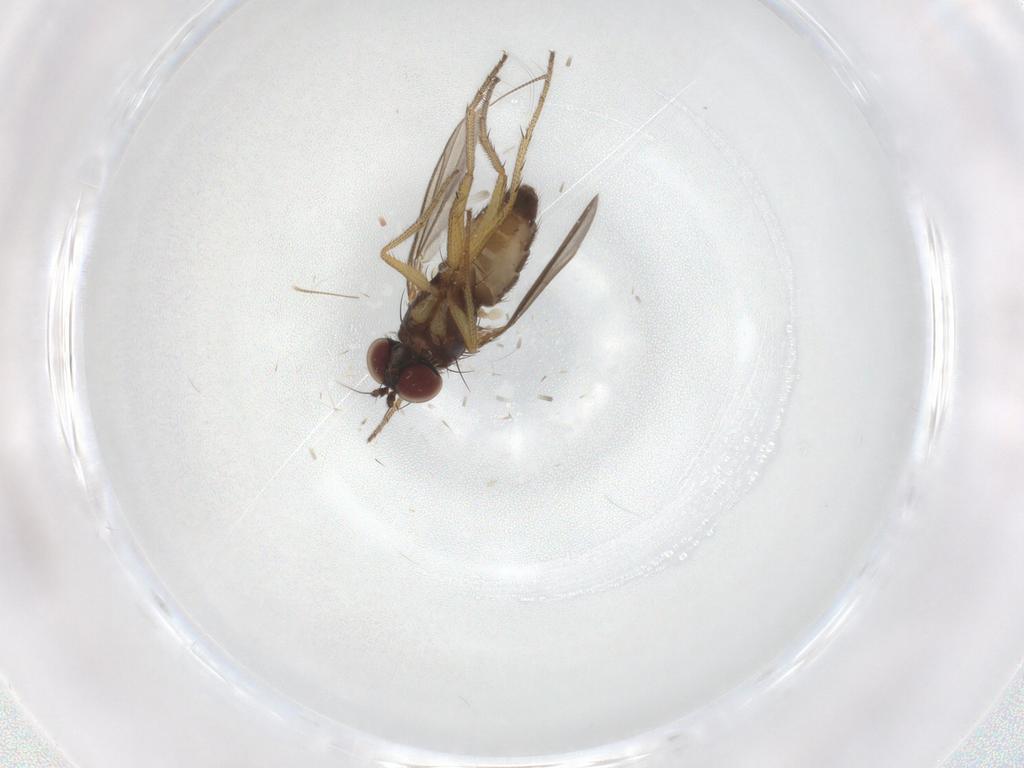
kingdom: Animalia
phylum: Arthropoda
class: Insecta
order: Diptera
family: Dolichopodidae
